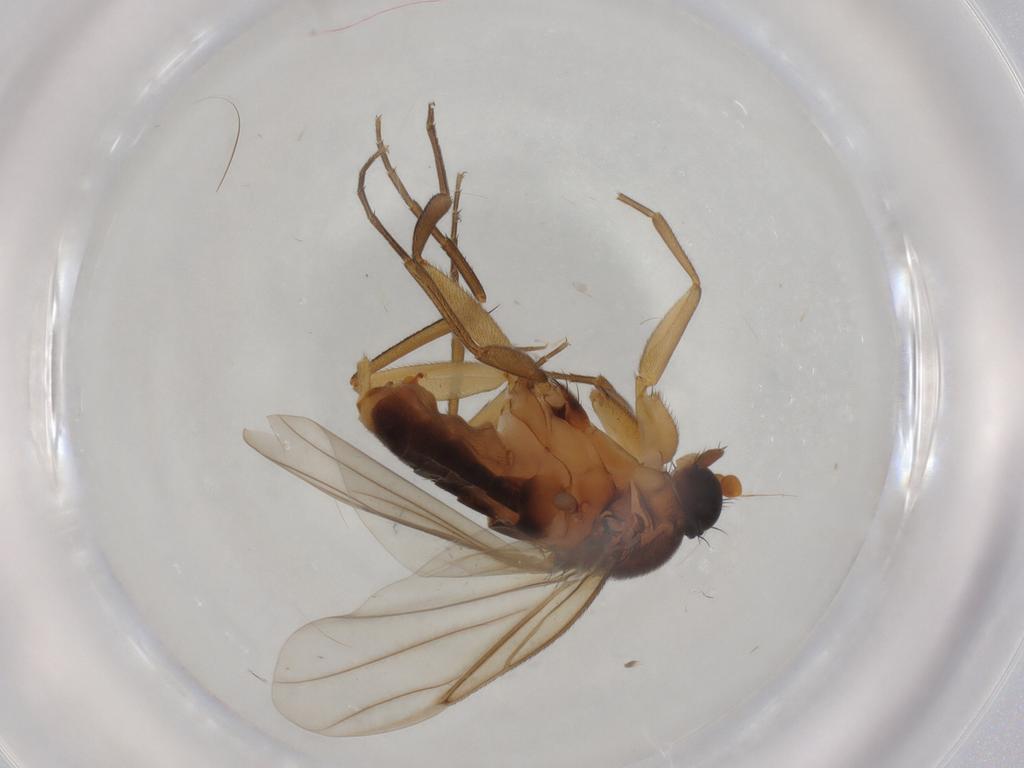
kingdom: Animalia
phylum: Arthropoda
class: Insecta
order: Diptera
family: Phoridae
